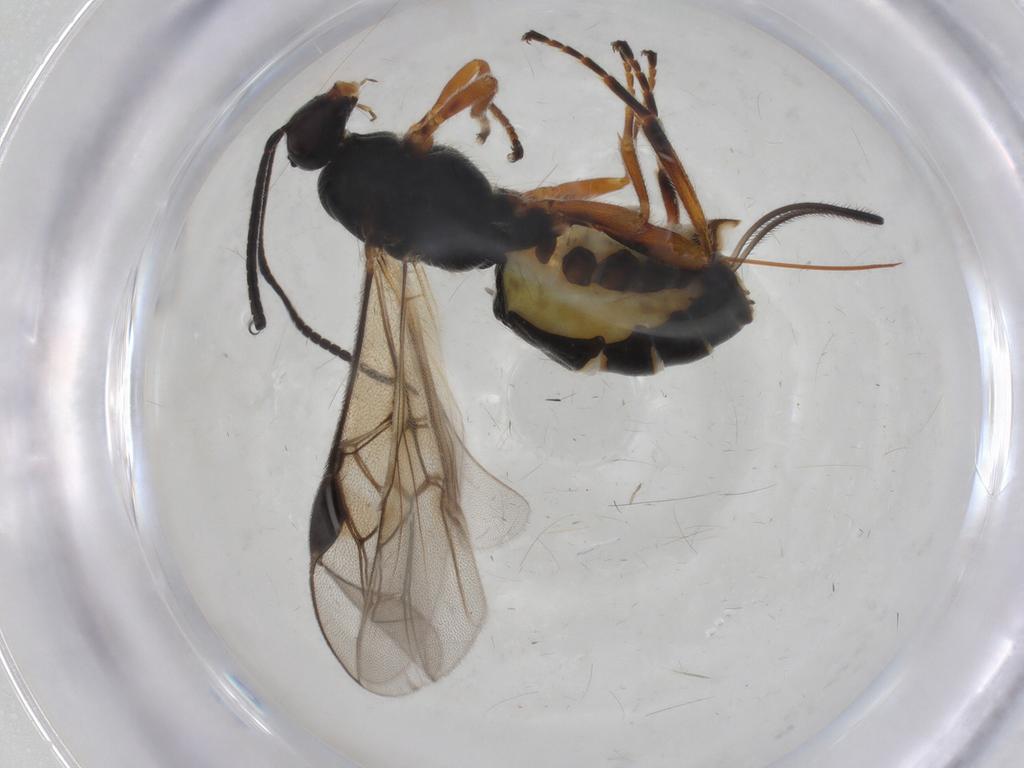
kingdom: Animalia
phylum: Arthropoda
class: Insecta
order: Hymenoptera
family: Braconidae
